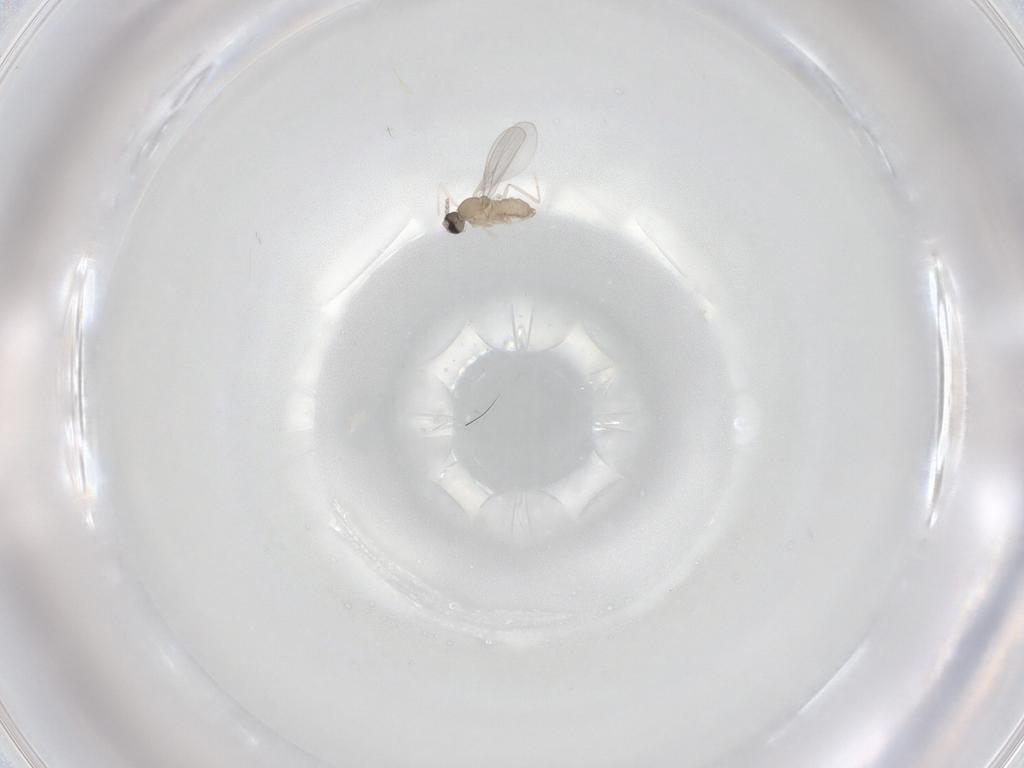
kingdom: Animalia
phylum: Arthropoda
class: Insecta
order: Diptera
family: Cecidomyiidae
